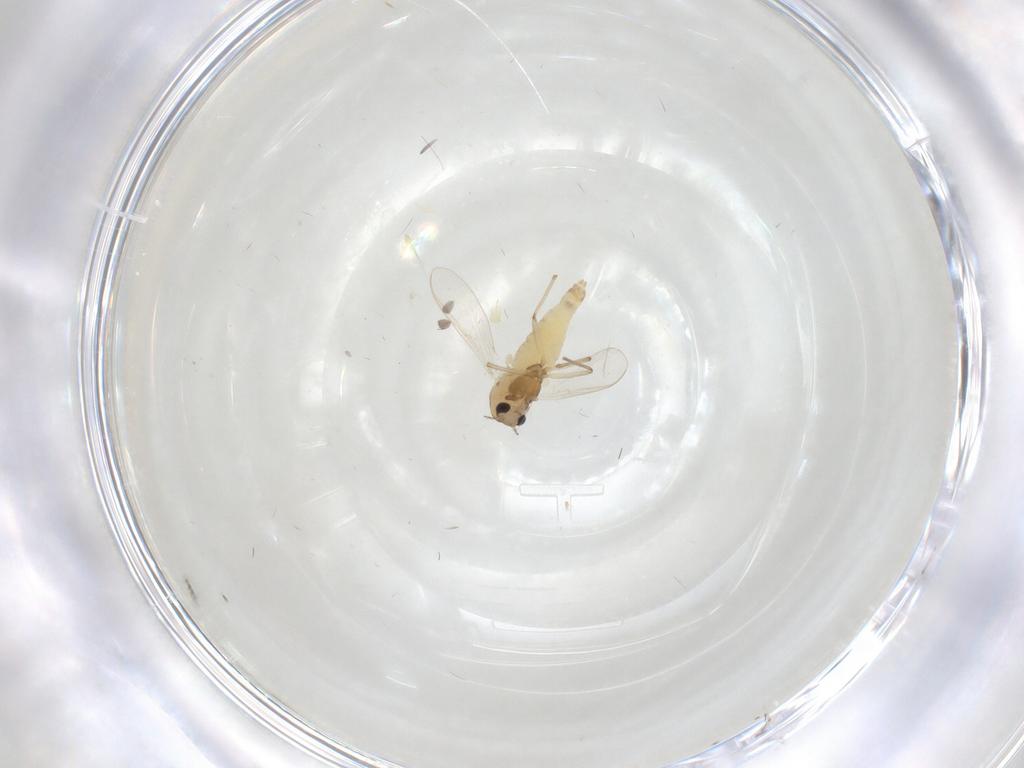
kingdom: Animalia
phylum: Arthropoda
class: Insecta
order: Diptera
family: Chironomidae
